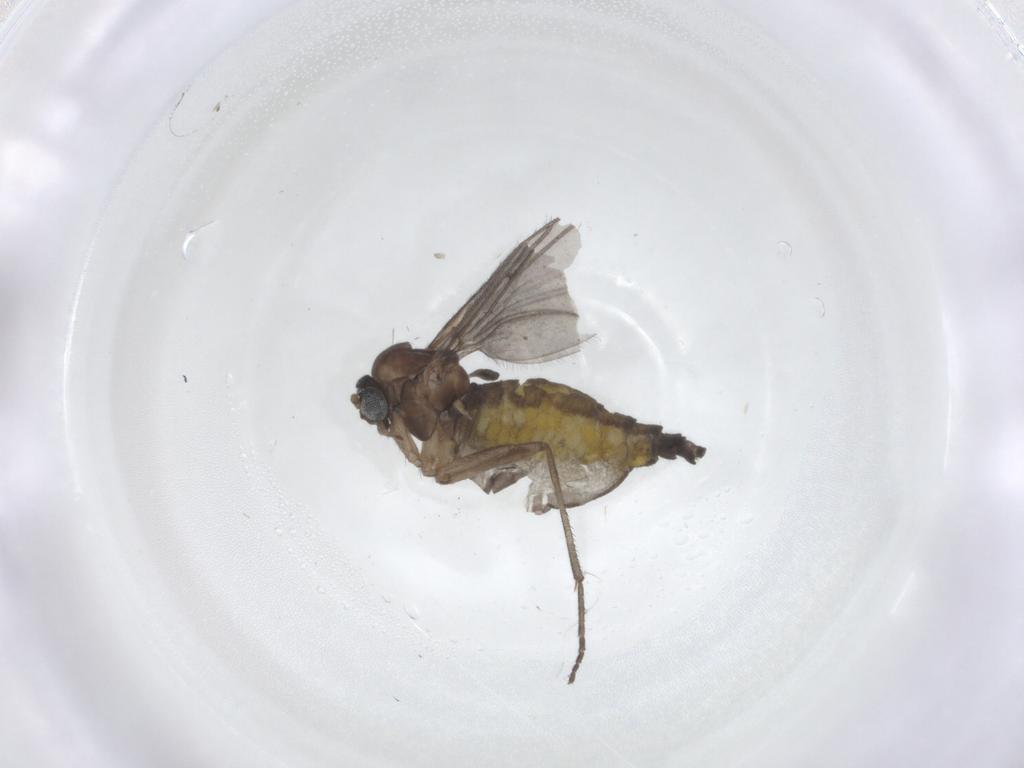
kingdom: Animalia
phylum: Arthropoda
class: Insecta
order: Diptera
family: Sciaridae
